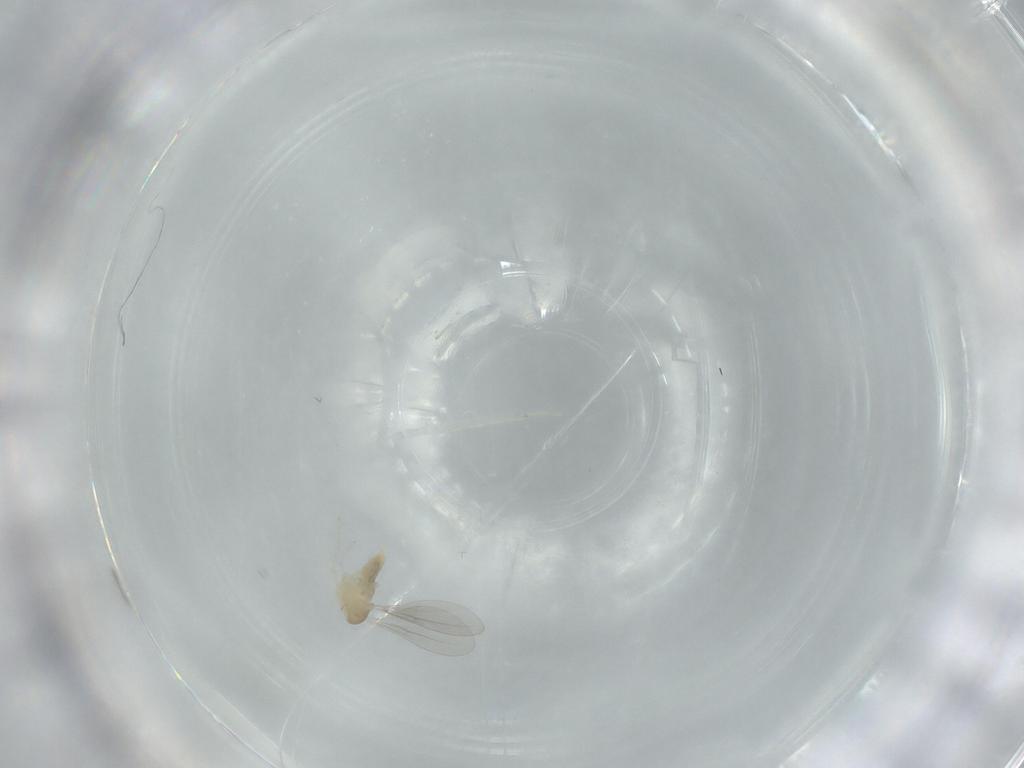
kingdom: Animalia
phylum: Arthropoda
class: Insecta
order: Diptera
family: Cecidomyiidae
